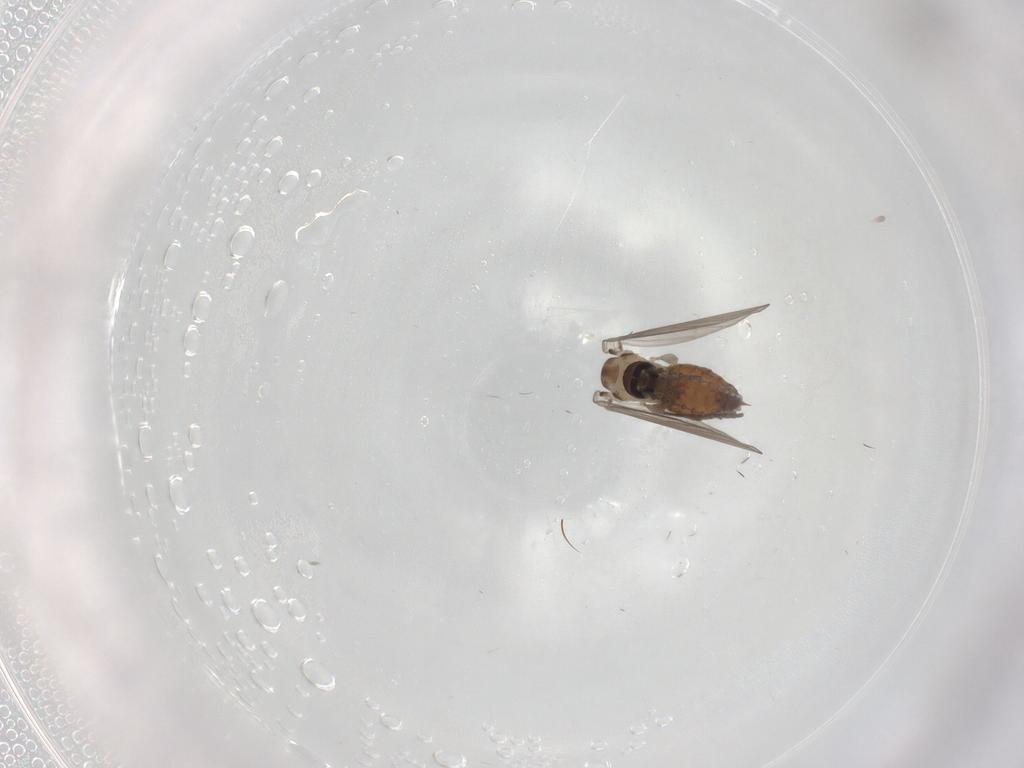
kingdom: Animalia
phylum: Arthropoda
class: Insecta
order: Diptera
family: Psychodidae
